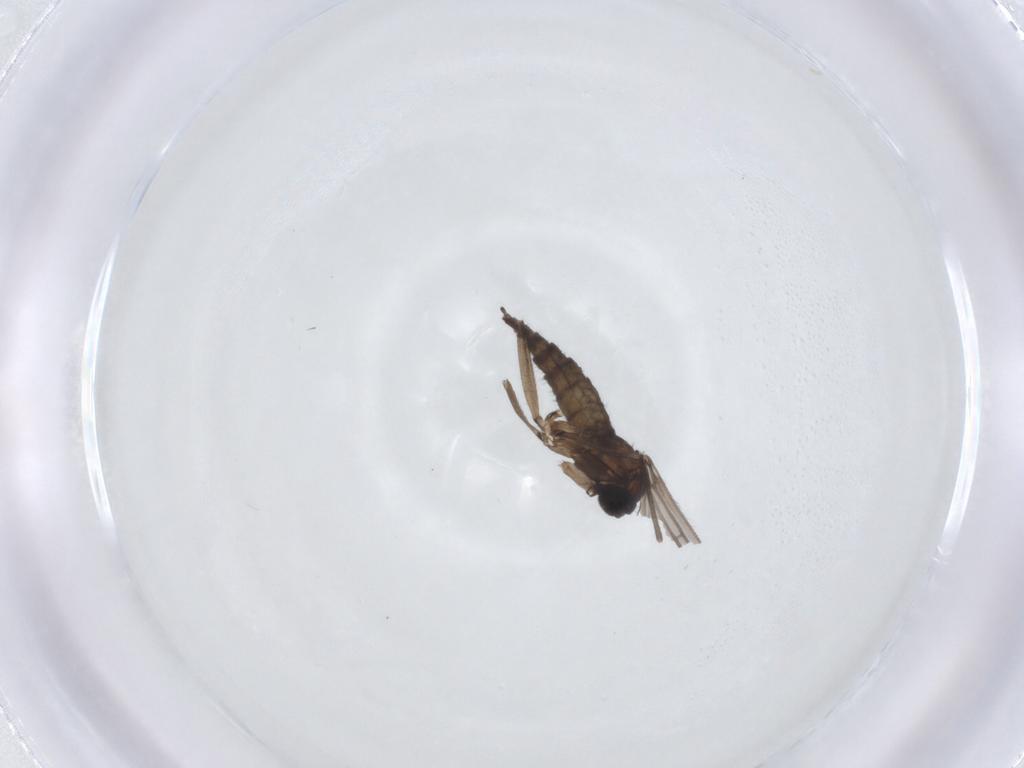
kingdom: Animalia
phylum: Arthropoda
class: Insecta
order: Diptera
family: Sciaridae
